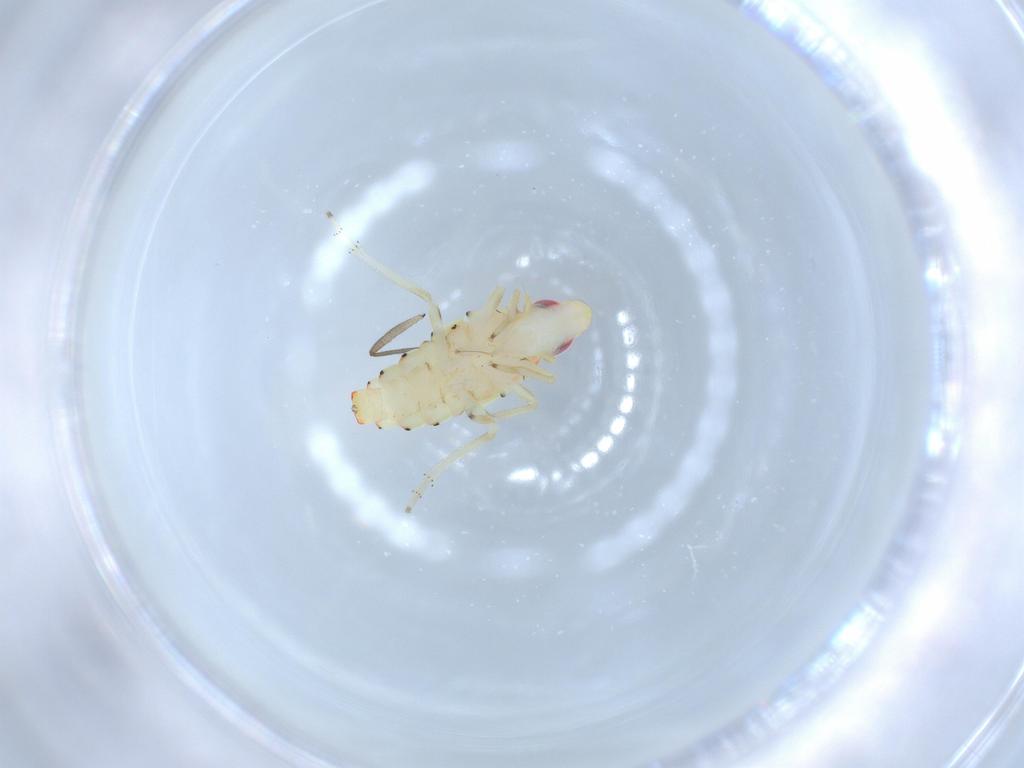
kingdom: Animalia
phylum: Arthropoda
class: Insecta
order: Hemiptera
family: Tropiduchidae
